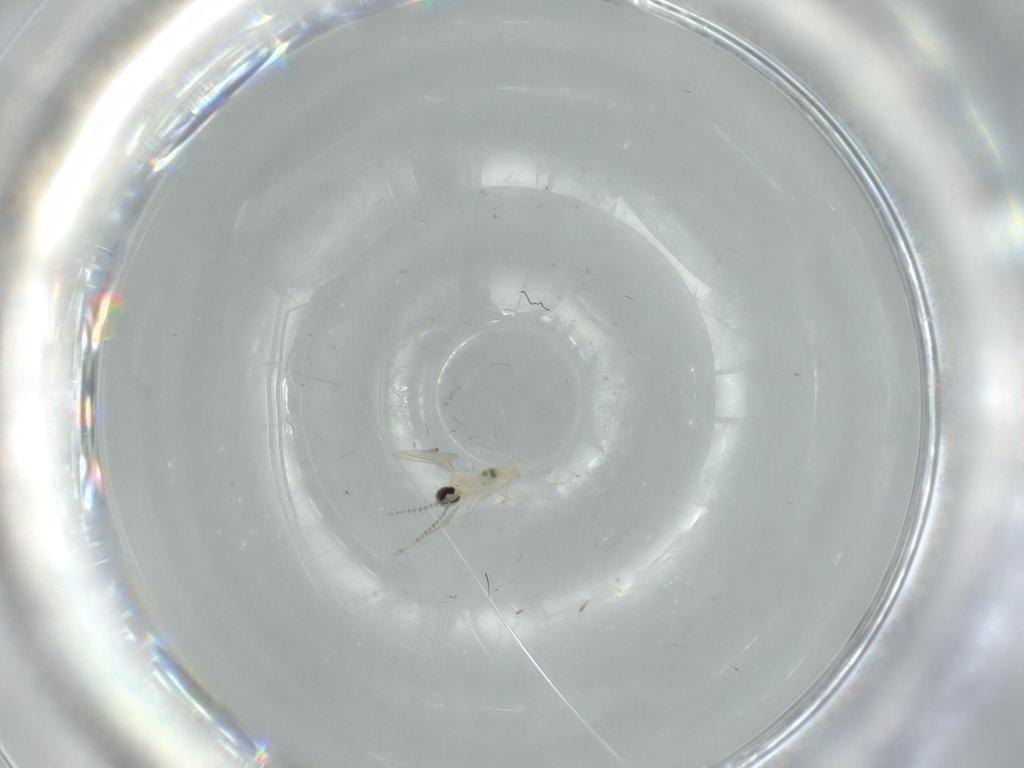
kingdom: Animalia
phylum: Arthropoda
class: Insecta
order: Diptera
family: Cecidomyiidae
